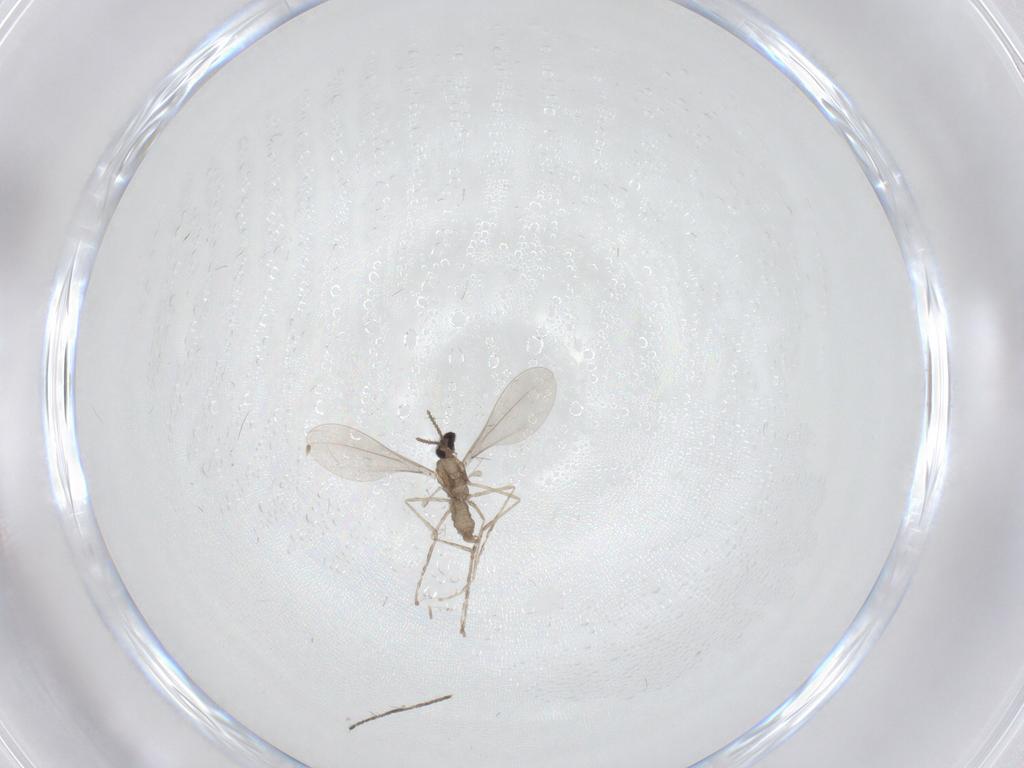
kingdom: Animalia
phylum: Arthropoda
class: Insecta
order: Diptera
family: Cecidomyiidae
